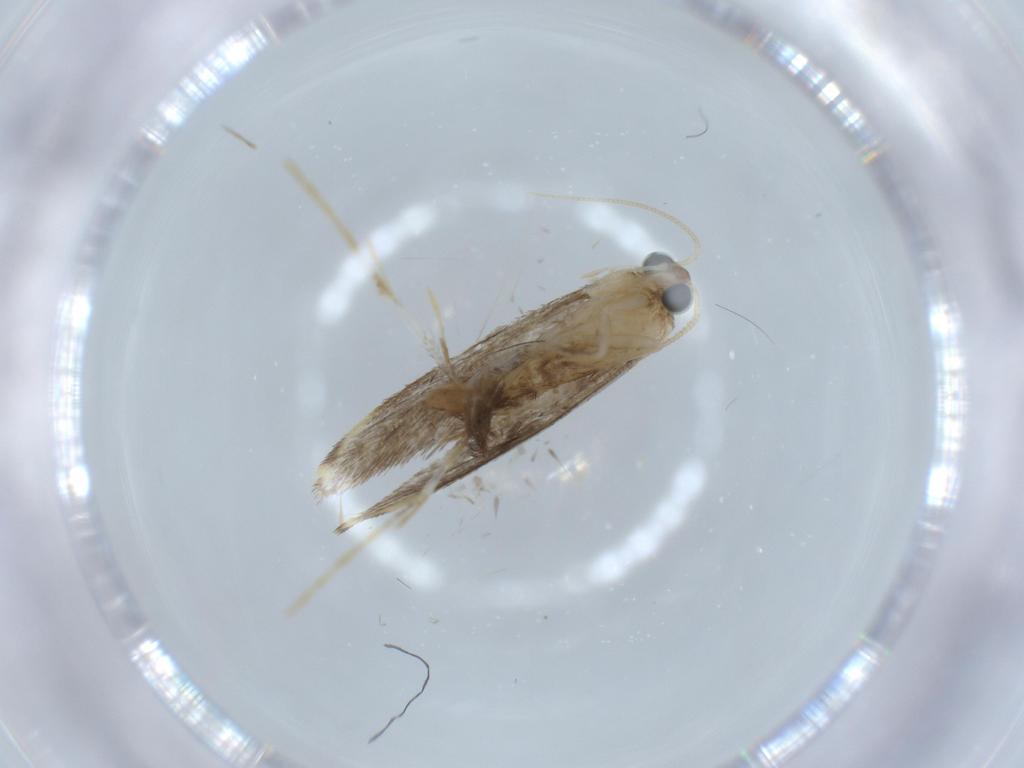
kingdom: Animalia
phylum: Arthropoda
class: Insecta
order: Lepidoptera
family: Tineidae
